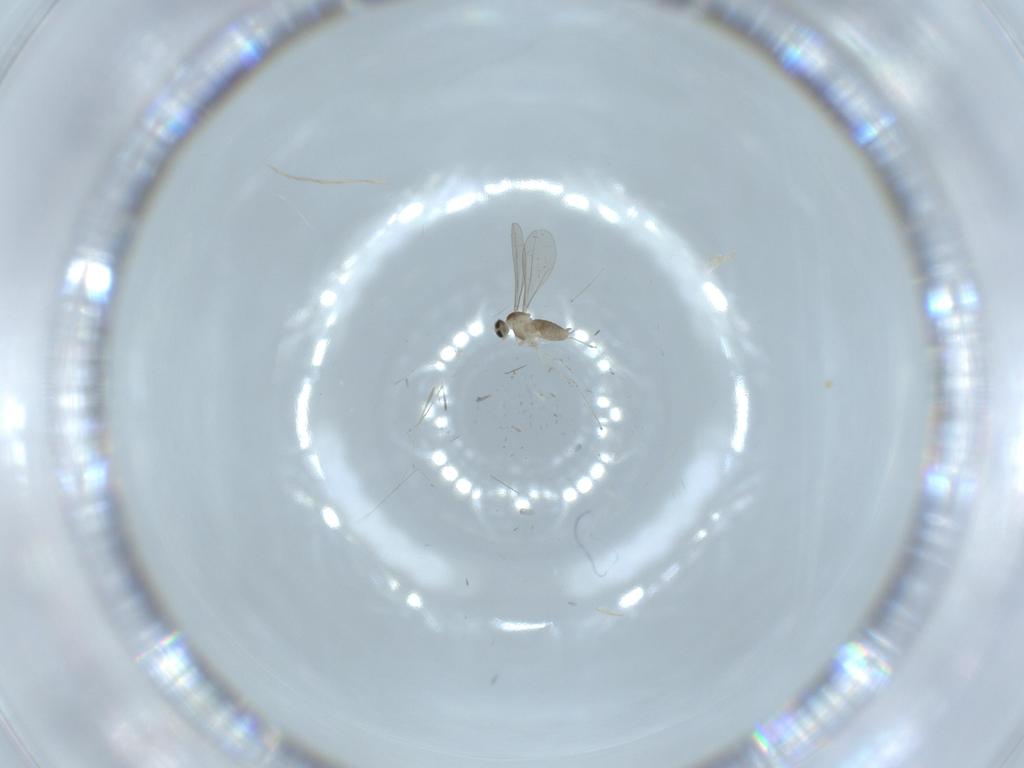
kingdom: Animalia
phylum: Arthropoda
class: Insecta
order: Diptera
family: Cecidomyiidae
